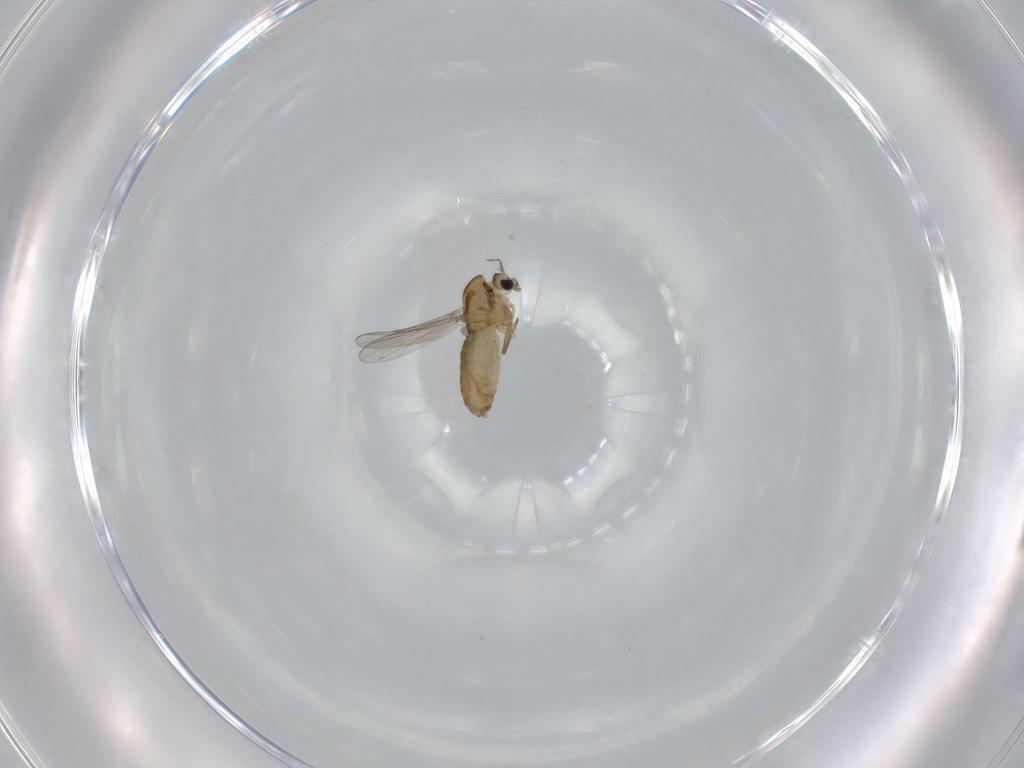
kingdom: Animalia
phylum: Arthropoda
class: Insecta
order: Diptera
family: Chironomidae
